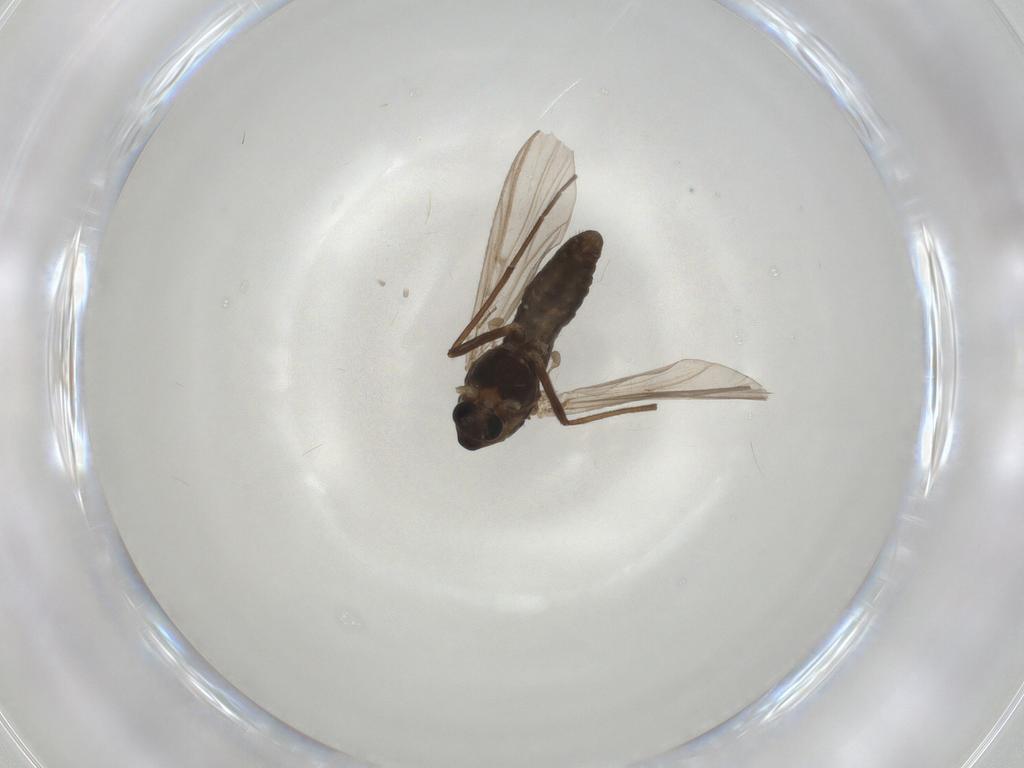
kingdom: Animalia
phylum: Arthropoda
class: Insecta
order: Diptera
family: Chironomidae
